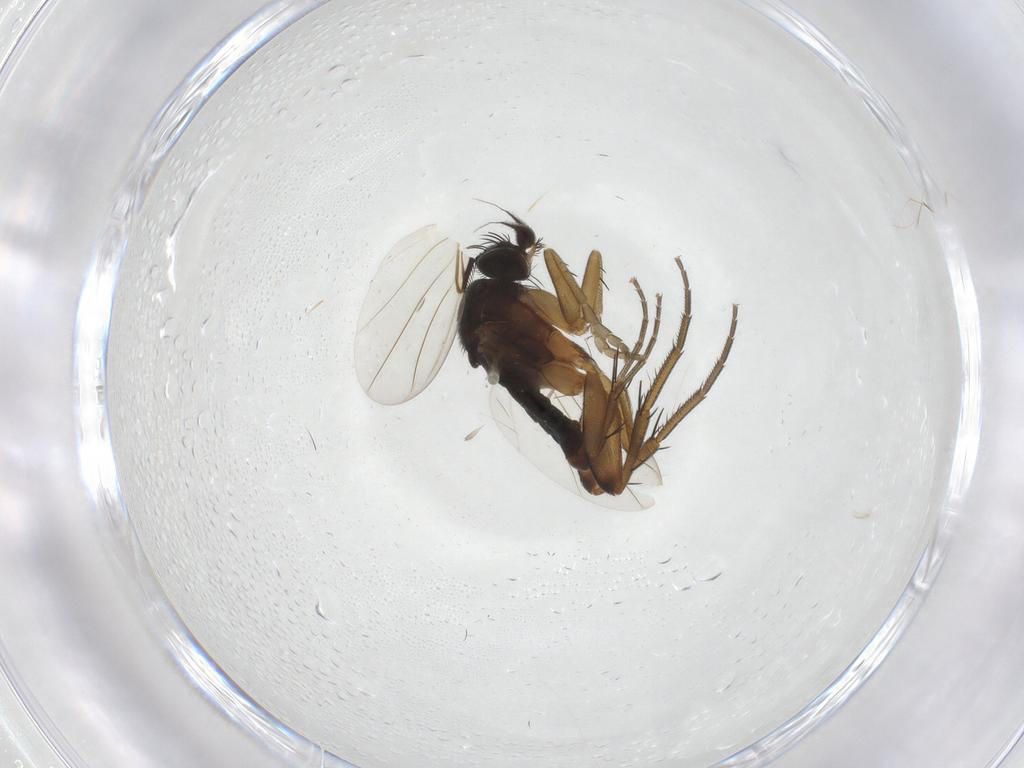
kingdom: Animalia
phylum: Arthropoda
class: Insecta
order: Diptera
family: Phoridae
